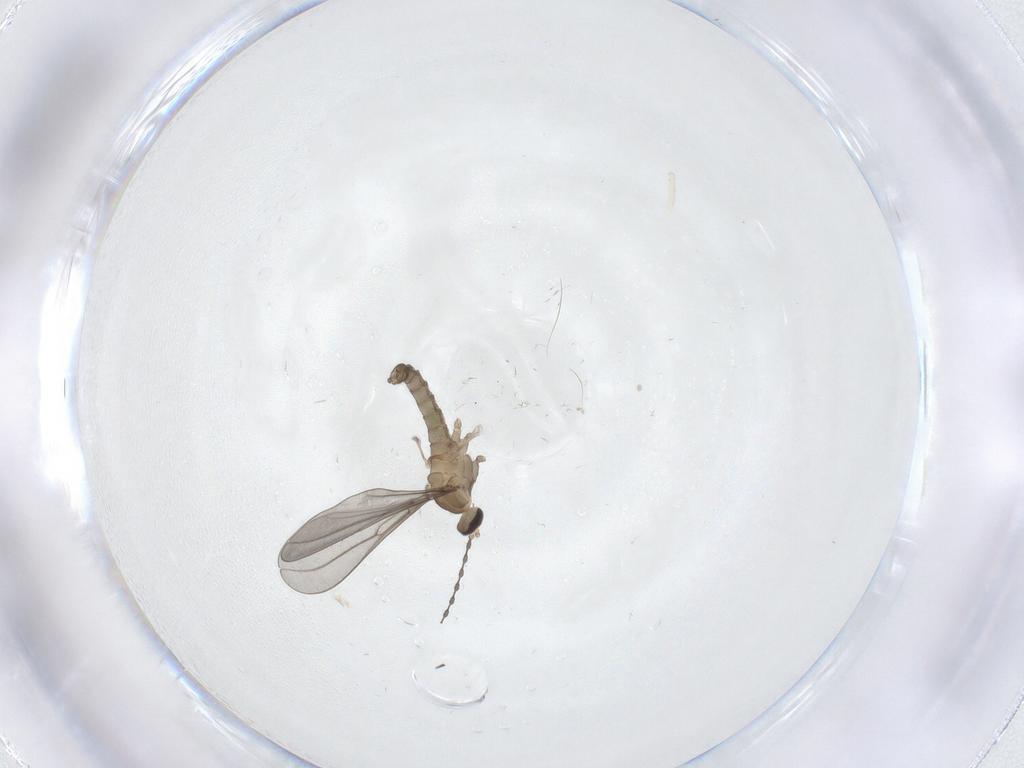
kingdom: Animalia
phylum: Arthropoda
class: Insecta
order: Diptera
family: Cecidomyiidae
